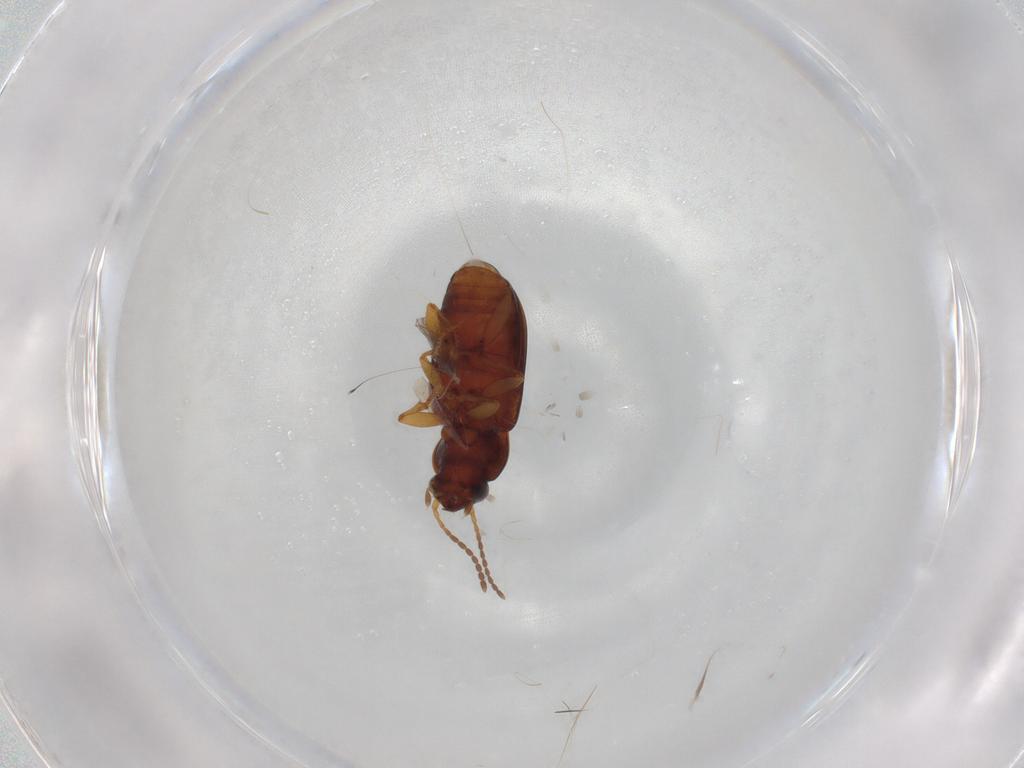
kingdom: Animalia
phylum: Arthropoda
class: Insecta
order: Coleoptera
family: Carabidae
